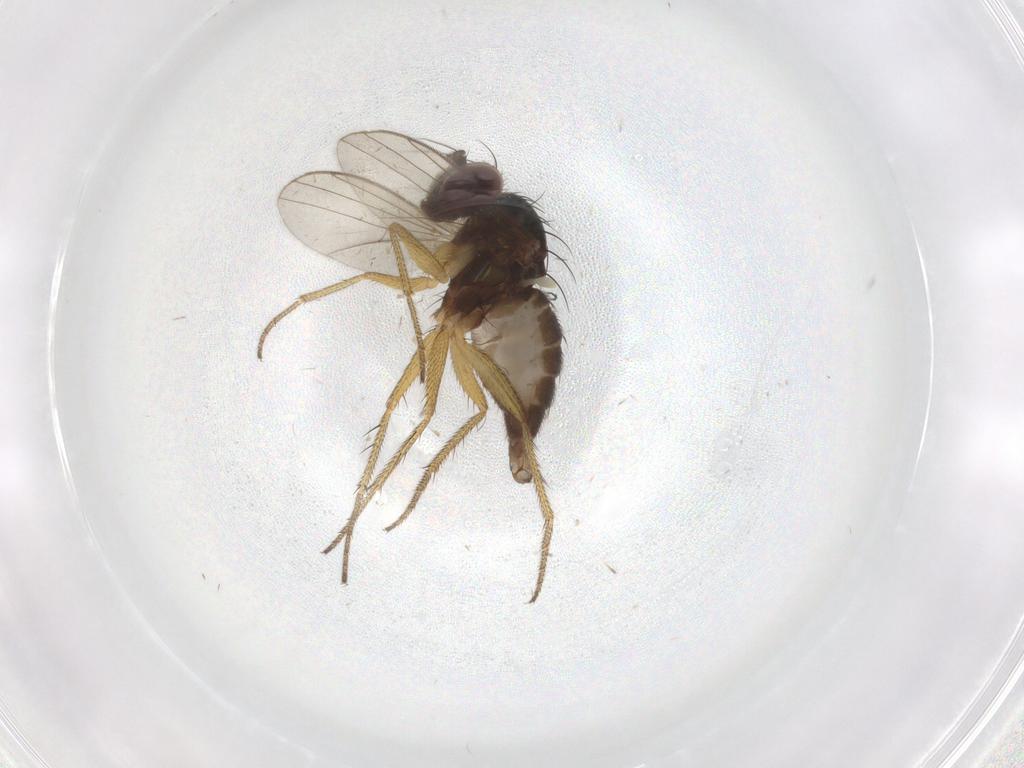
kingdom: Animalia
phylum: Arthropoda
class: Insecta
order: Diptera
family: Dolichopodidae
